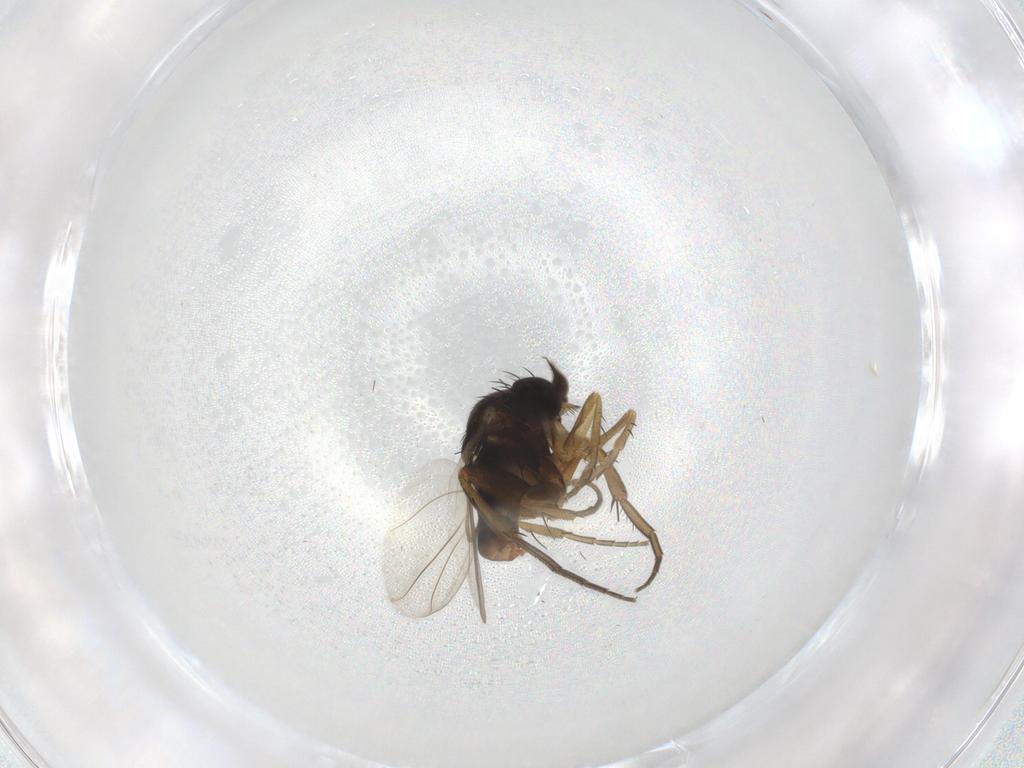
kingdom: Animalia
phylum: Arthropoda
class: Insecta
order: Diptera
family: Phoridae
